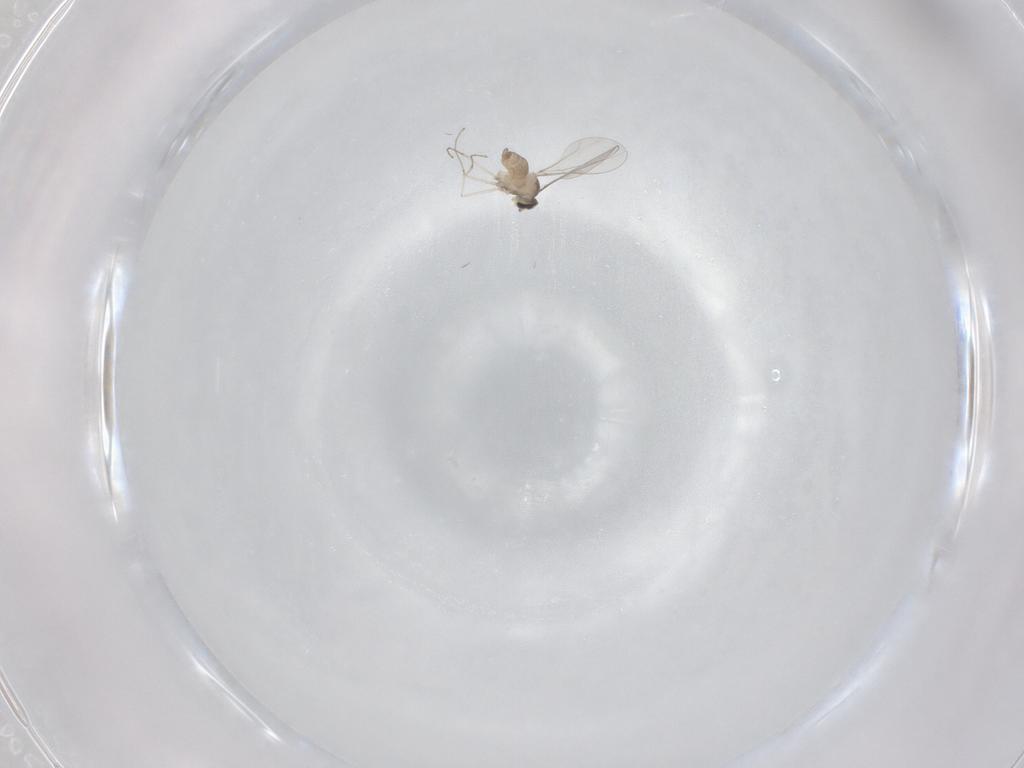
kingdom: Animalia
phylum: Arthropoda
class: Insecta
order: Diptera
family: Cecidomyiidae
